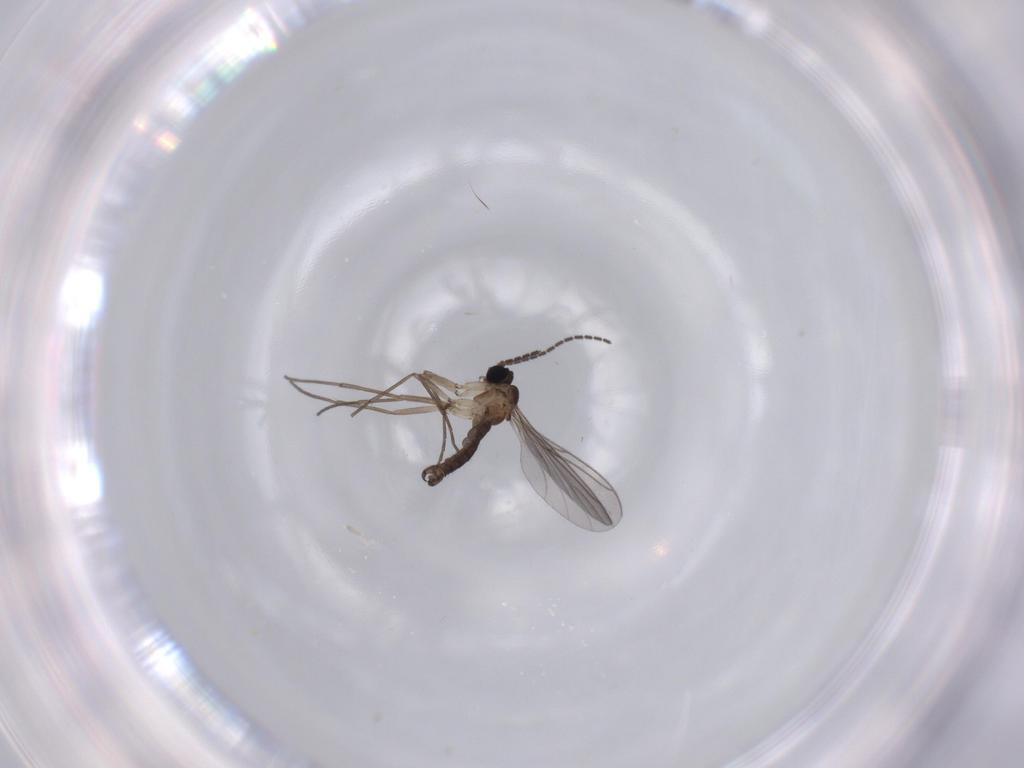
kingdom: Animalia
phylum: Arthropoda
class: Insecta
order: Diptera
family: Sciaridae
